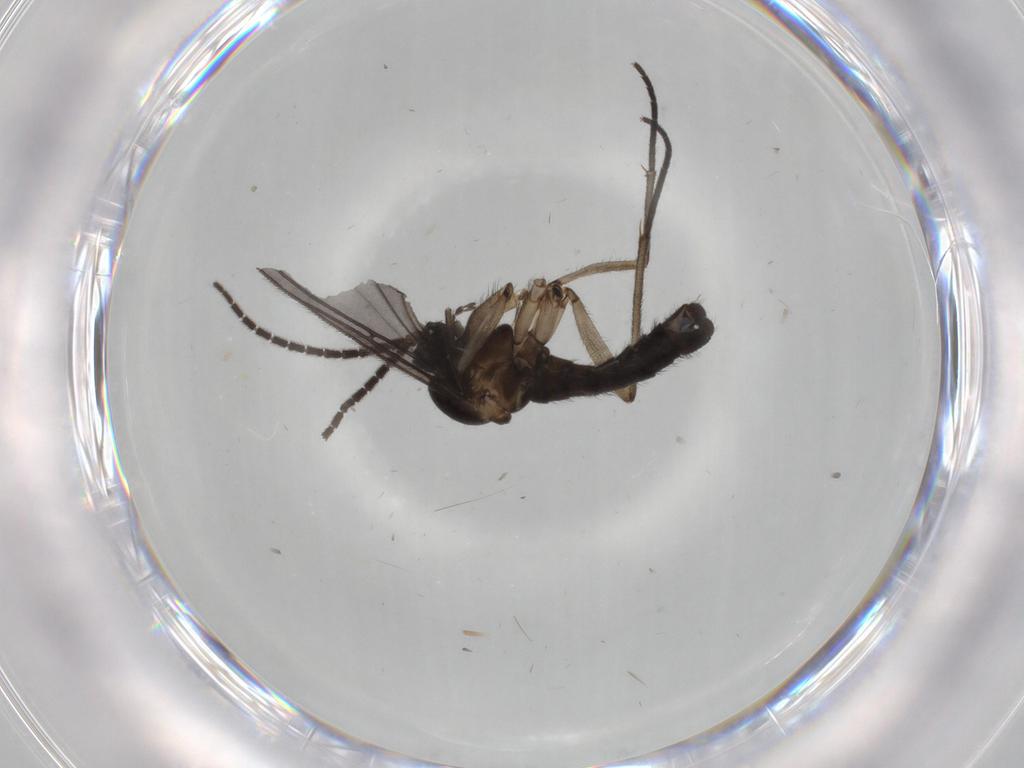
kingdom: Animalia
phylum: Arthropoda
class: Insecta
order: Diptera
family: Sciaridae
